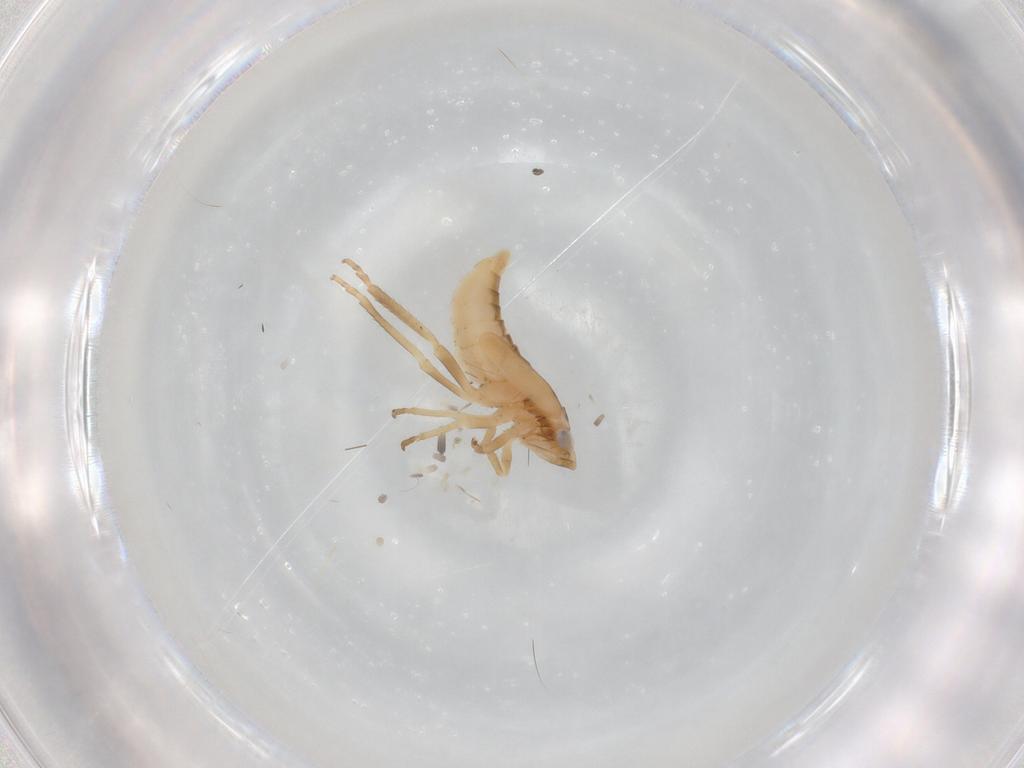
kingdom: Animalia
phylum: Arthropoda
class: Insecta
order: Hemiptera
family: Cicadellidae
